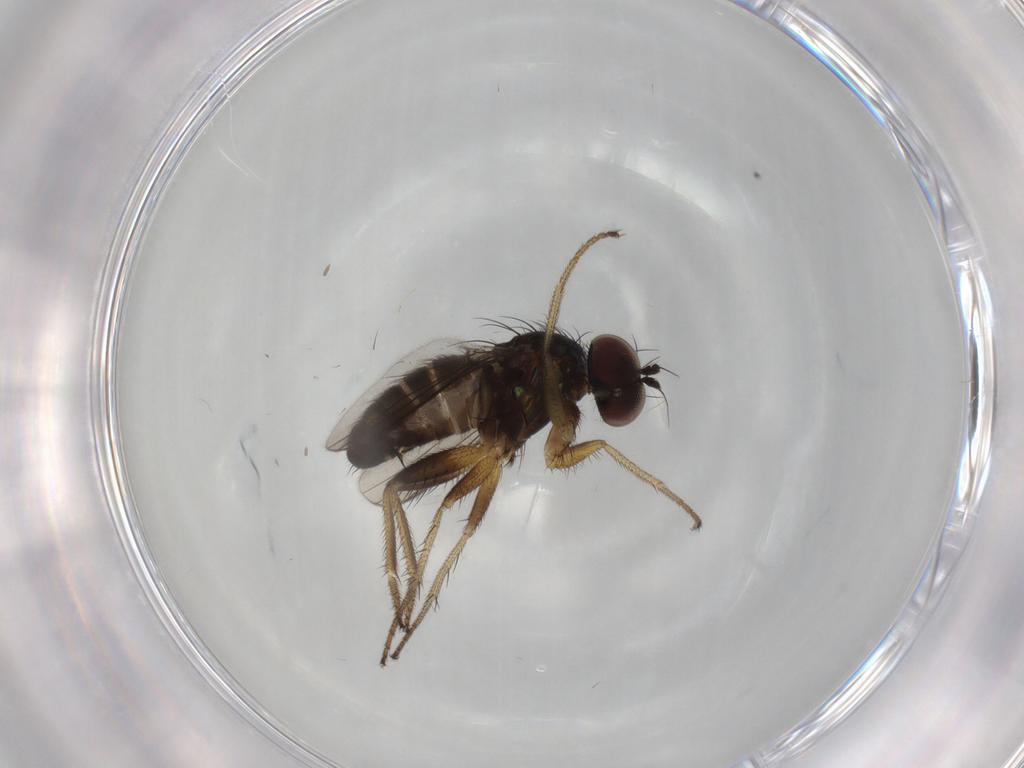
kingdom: Animalia
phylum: Arthropoda
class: Insecta
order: Diptera
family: Dolichopodidae
